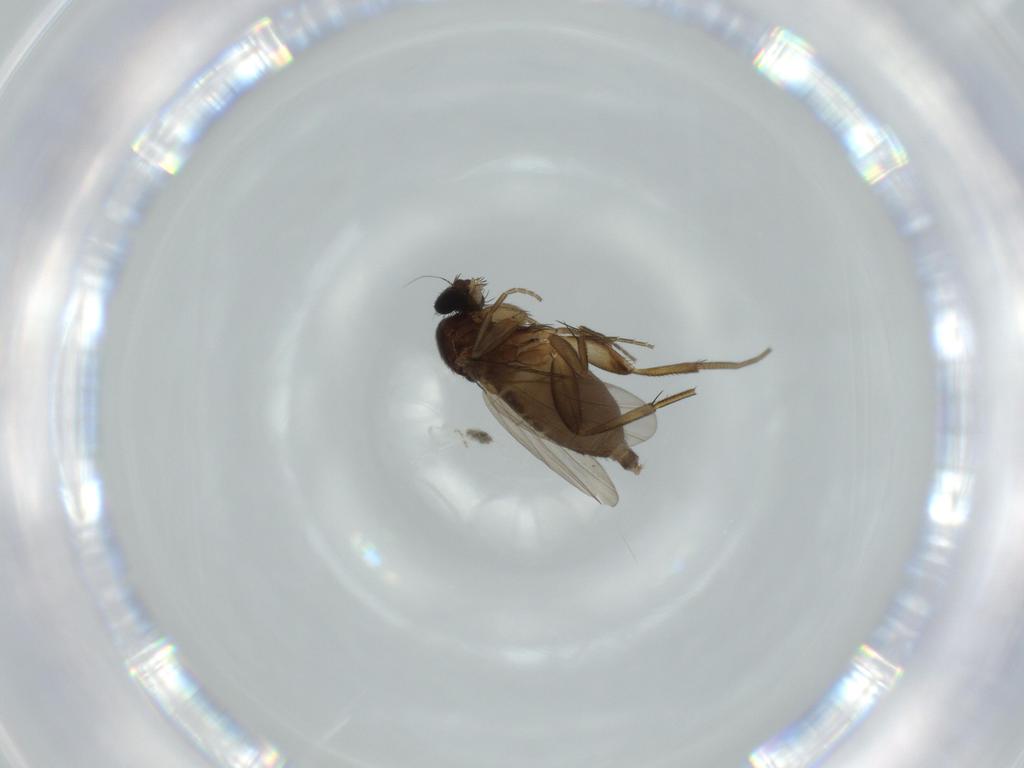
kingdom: Animalia
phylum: Arthropoda
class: Insecta
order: Diptera
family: Phoridae
